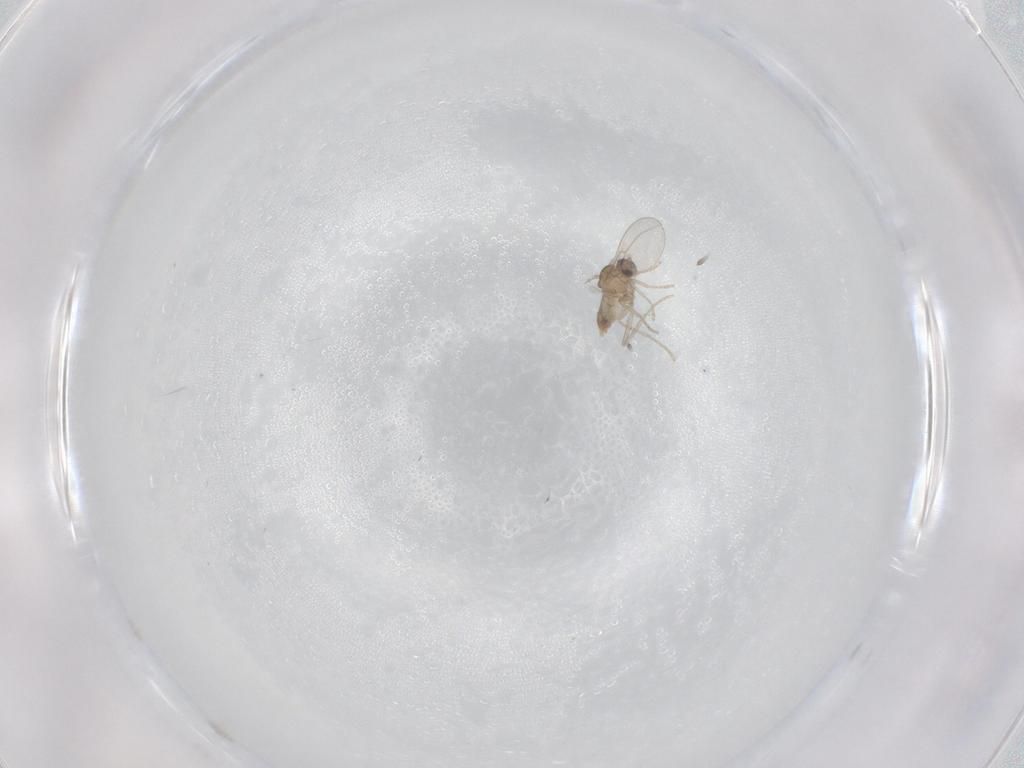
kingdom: Animalia
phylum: Arthropoda
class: Insecta
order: Diptera
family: Cecidomyiidae
